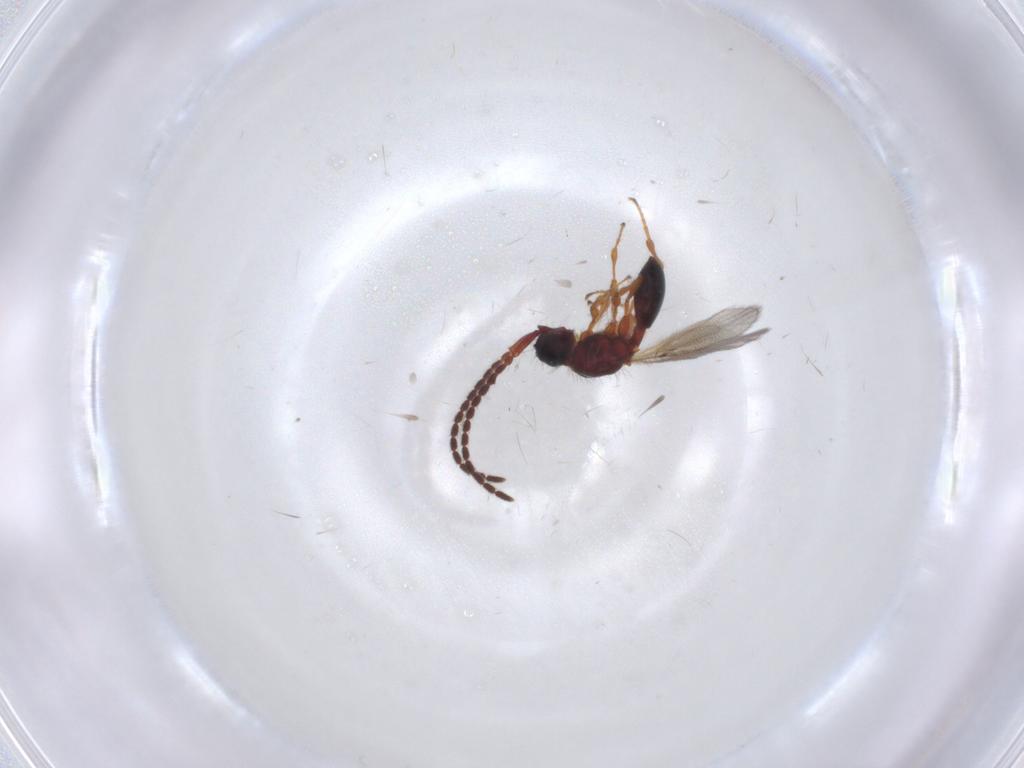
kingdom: Animalia
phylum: Arthropoda
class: Insecta
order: Hymenoptera
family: Diapriidae
